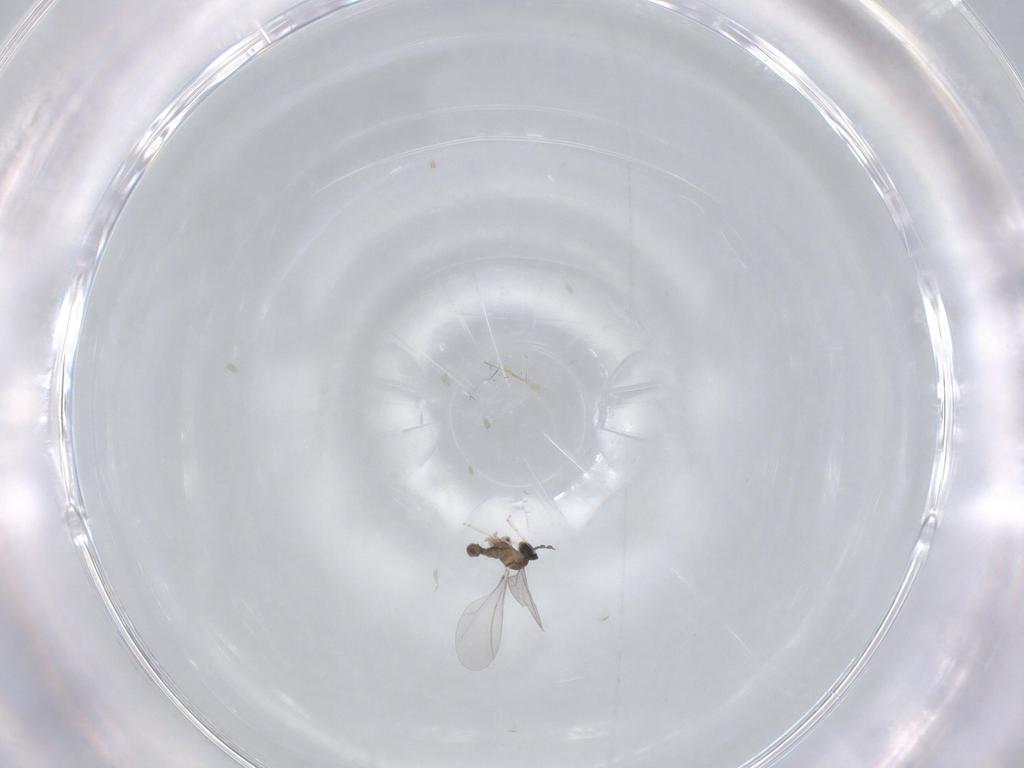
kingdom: Animalia
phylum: Arthropoda
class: Insecta
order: Diptera
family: Cecidomyiidae
